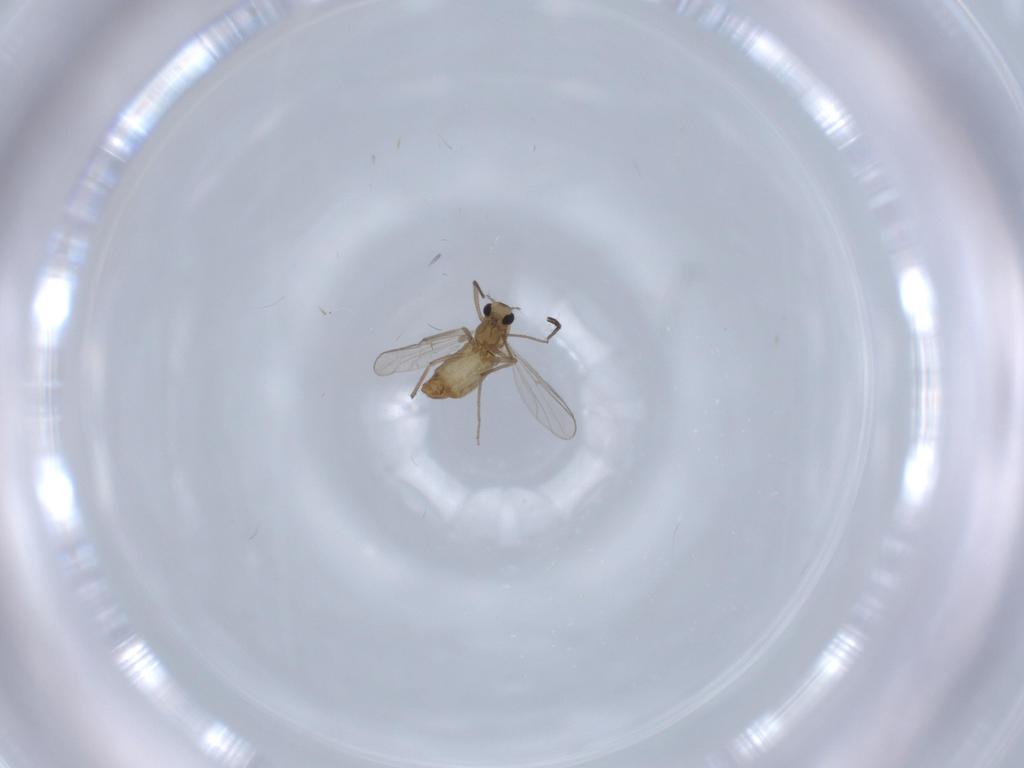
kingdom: Animalia
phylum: Arthropoda
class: Insecta
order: Diptera
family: Chironomidae
